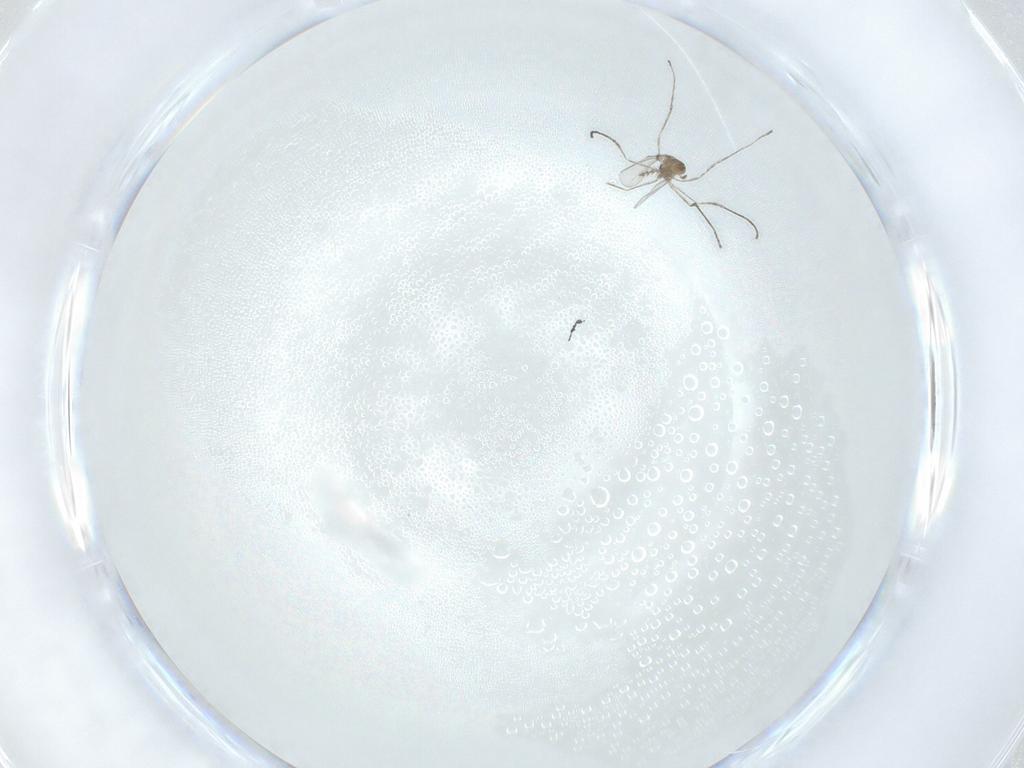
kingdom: Animalia
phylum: Arthropoda
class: Insecta
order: Diptera
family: Cecidomyiidae
